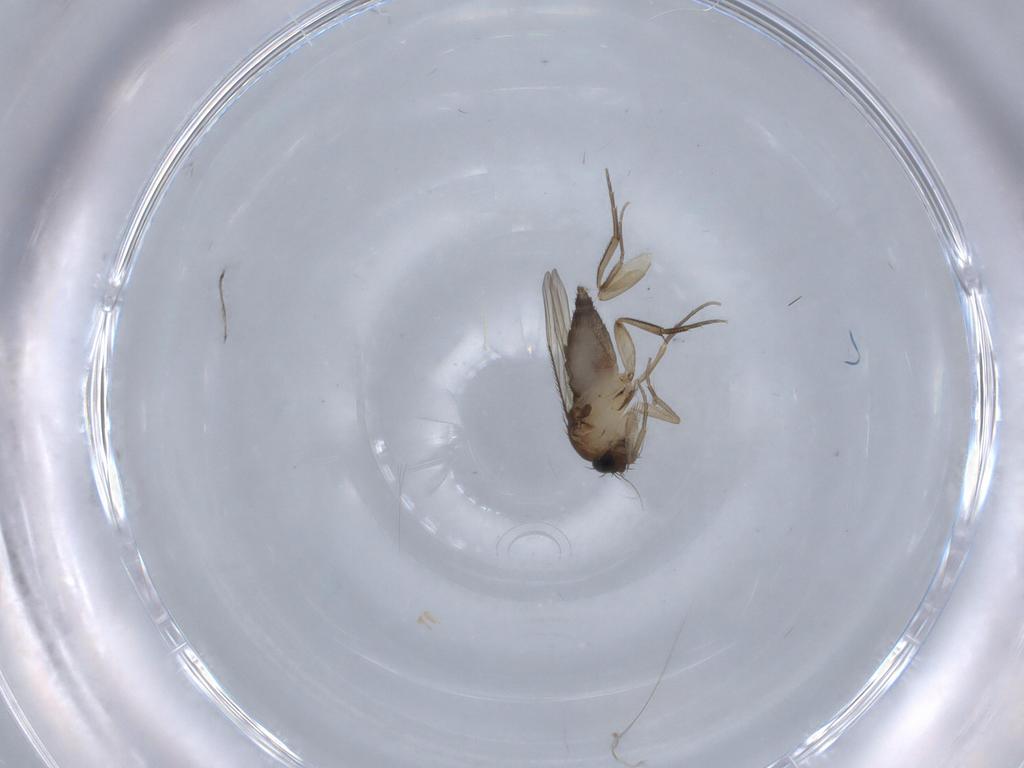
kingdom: Animalia
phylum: Arthropoda
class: Insecta
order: Diptera
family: Phoridae
